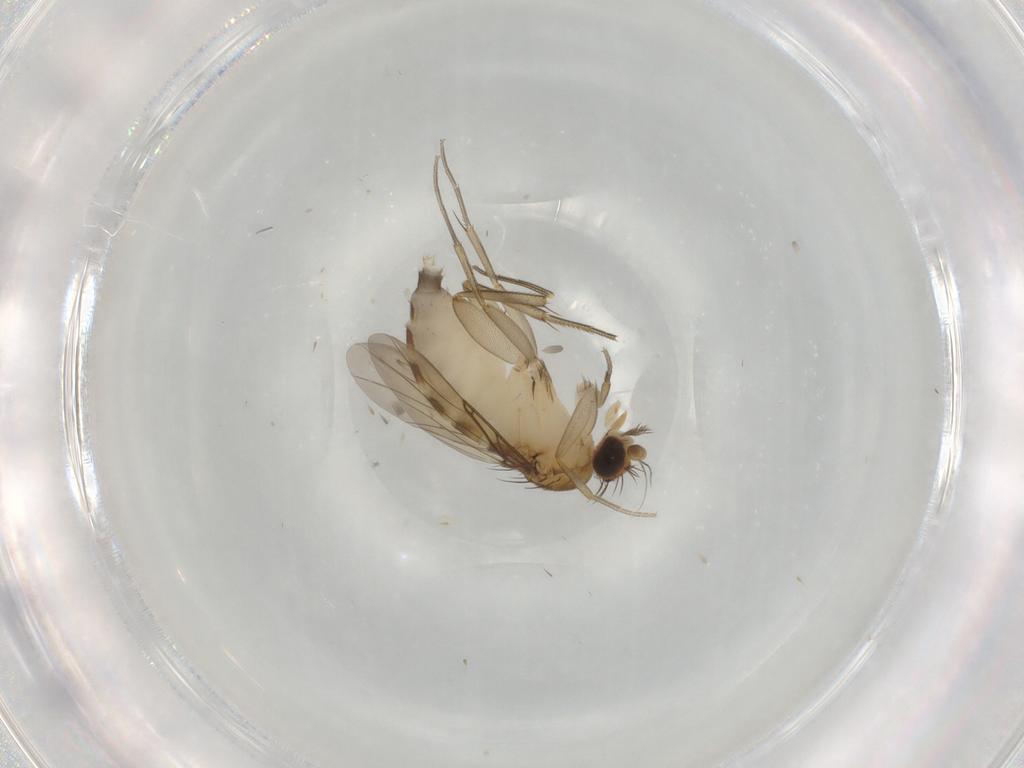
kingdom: Animalia
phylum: Arthropoda
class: Insecta
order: Diptera
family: Phoridae
